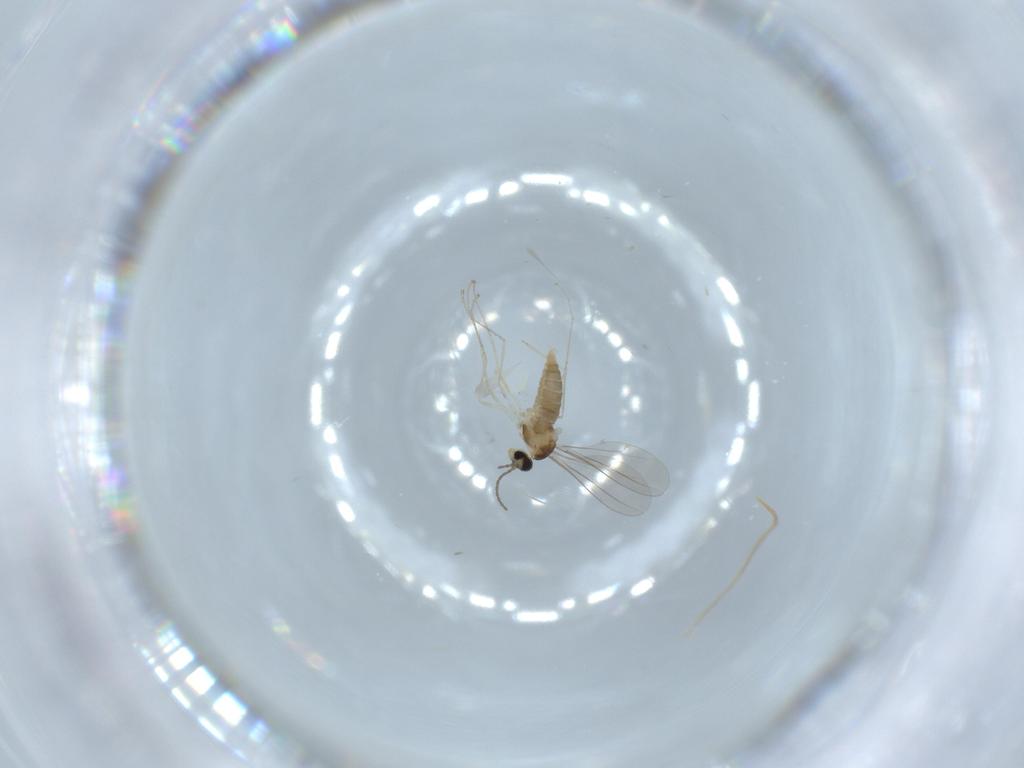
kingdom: Animalia
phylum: Arthropoda
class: Insecta
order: Diptera
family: Cecidomyiidae
